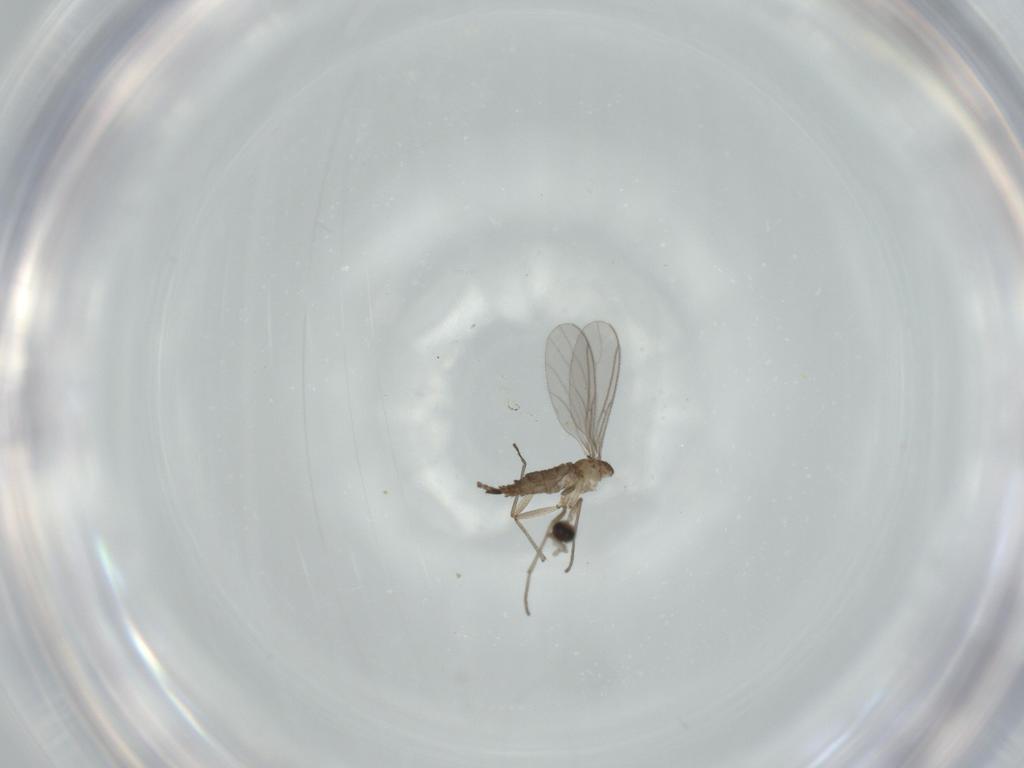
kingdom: Animalia
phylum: Arthropoda
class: Insecta
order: Diptera
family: Sciaridae
